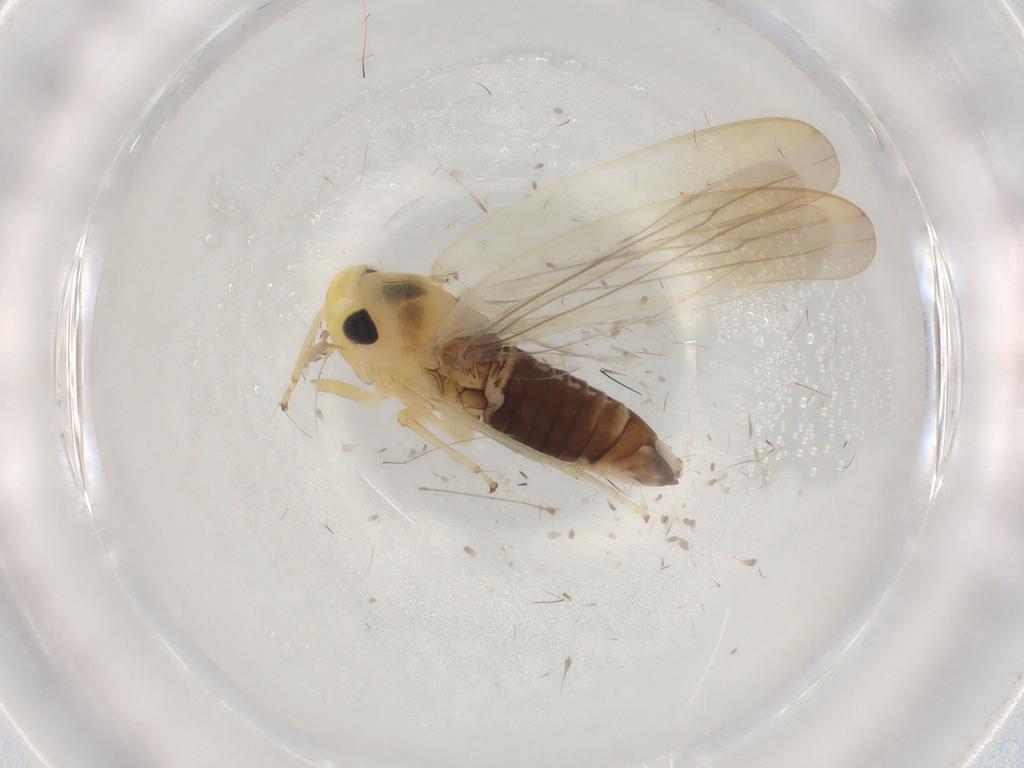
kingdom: Animalia
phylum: Arthropoda
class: Insecta
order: Hemiptera
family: Cicadellidae
